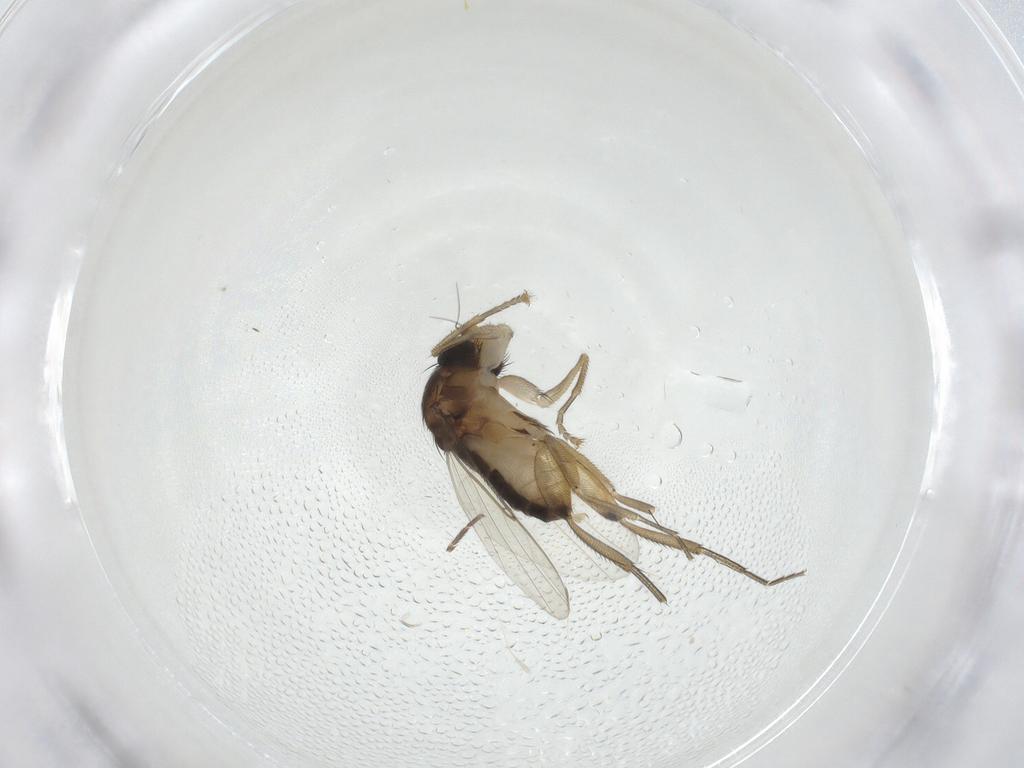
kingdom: Animalia
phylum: Arthropoda
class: Insecta
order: Diptera
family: Phoridae
